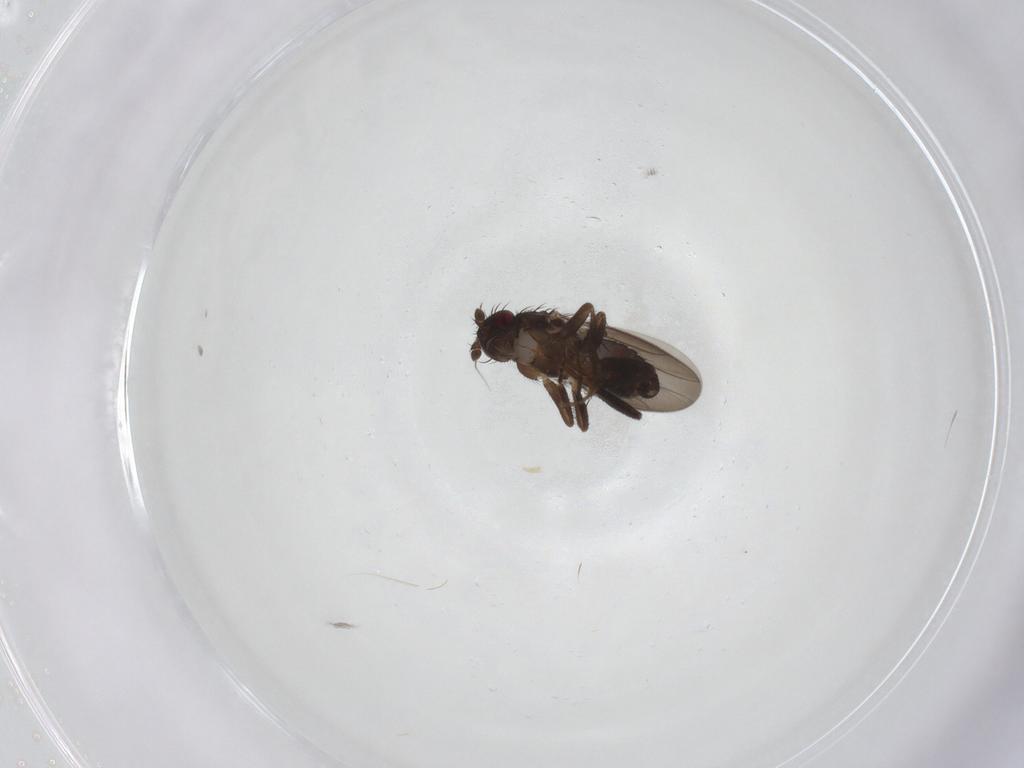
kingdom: Animalia
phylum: Arthropoda
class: Insecta
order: Diptera
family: Sphaeroceridae
